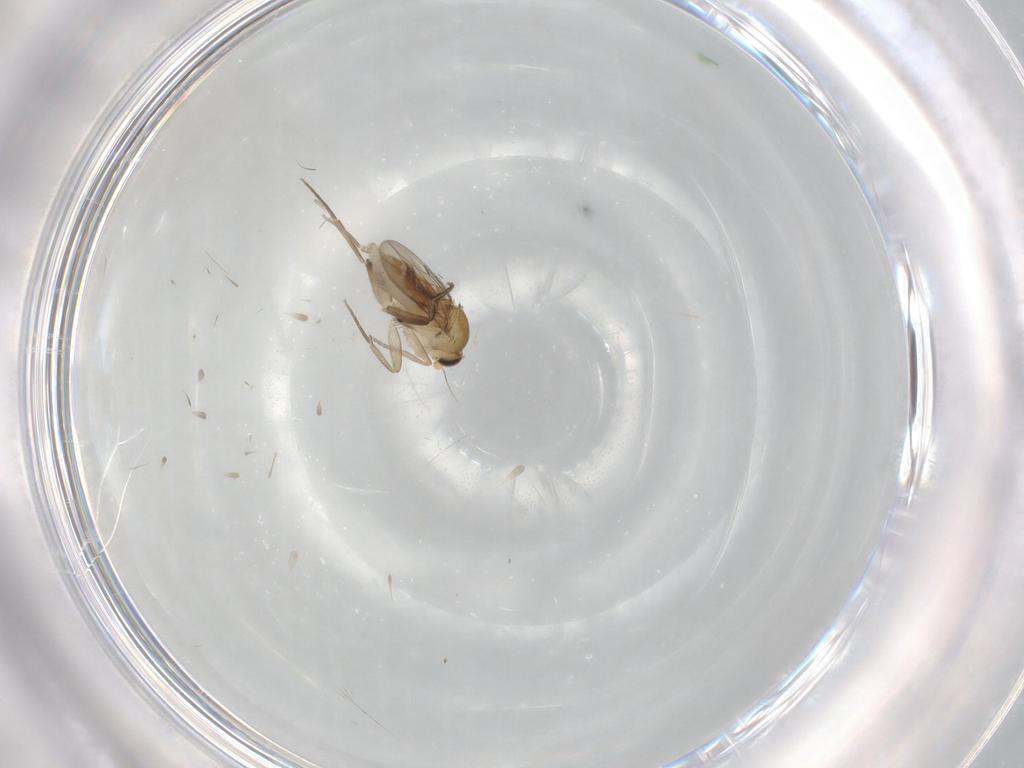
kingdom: Animalia
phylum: Arthropoda
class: Insecta
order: Diptera
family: Phoridae
